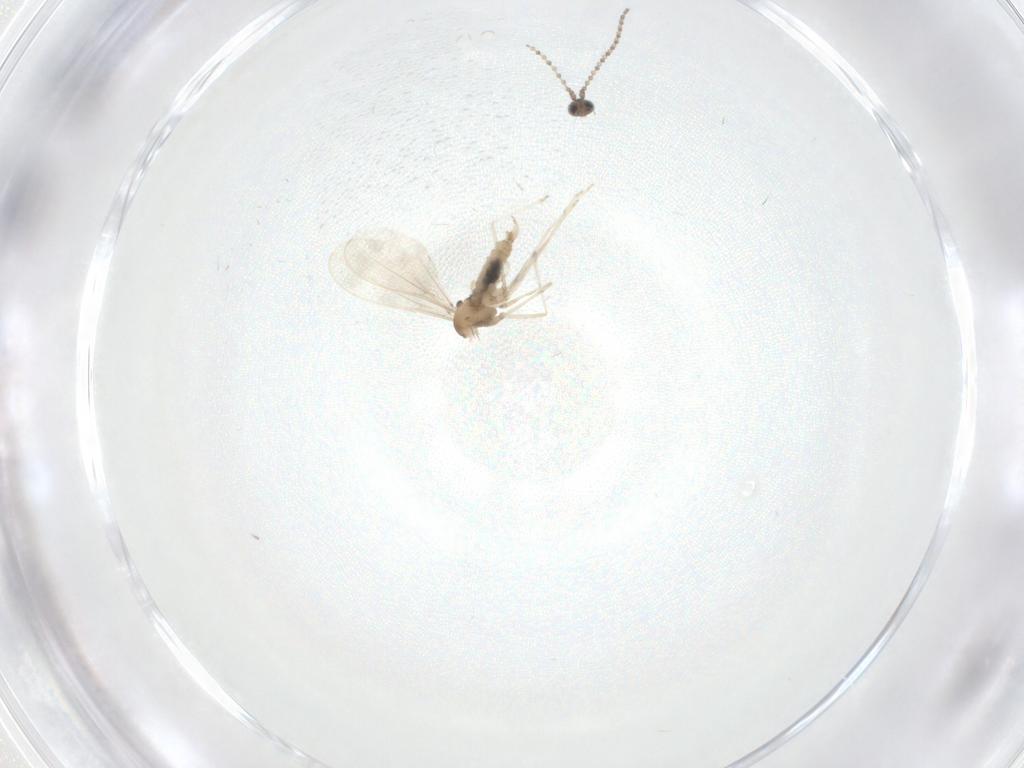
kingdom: Animalia
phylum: Arthropoda
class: Insecta
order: Diptera
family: Cecidomyiidae
